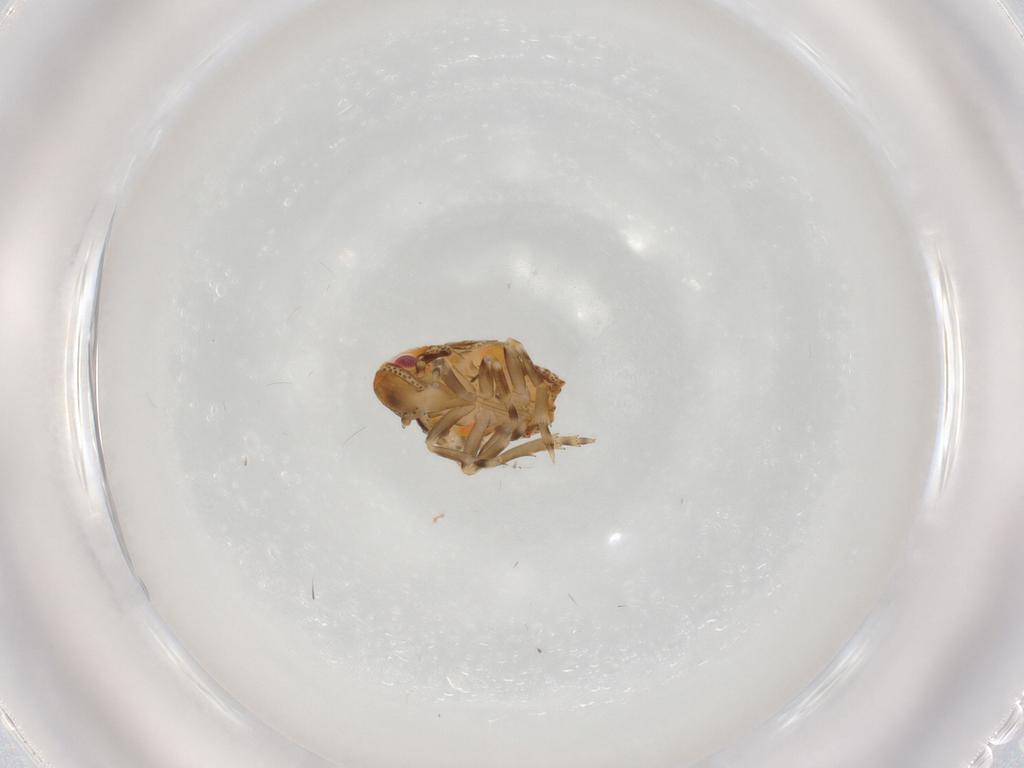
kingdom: Animalia
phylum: Arthropoda
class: Insecta
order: Hemiptera
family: Flatidae
